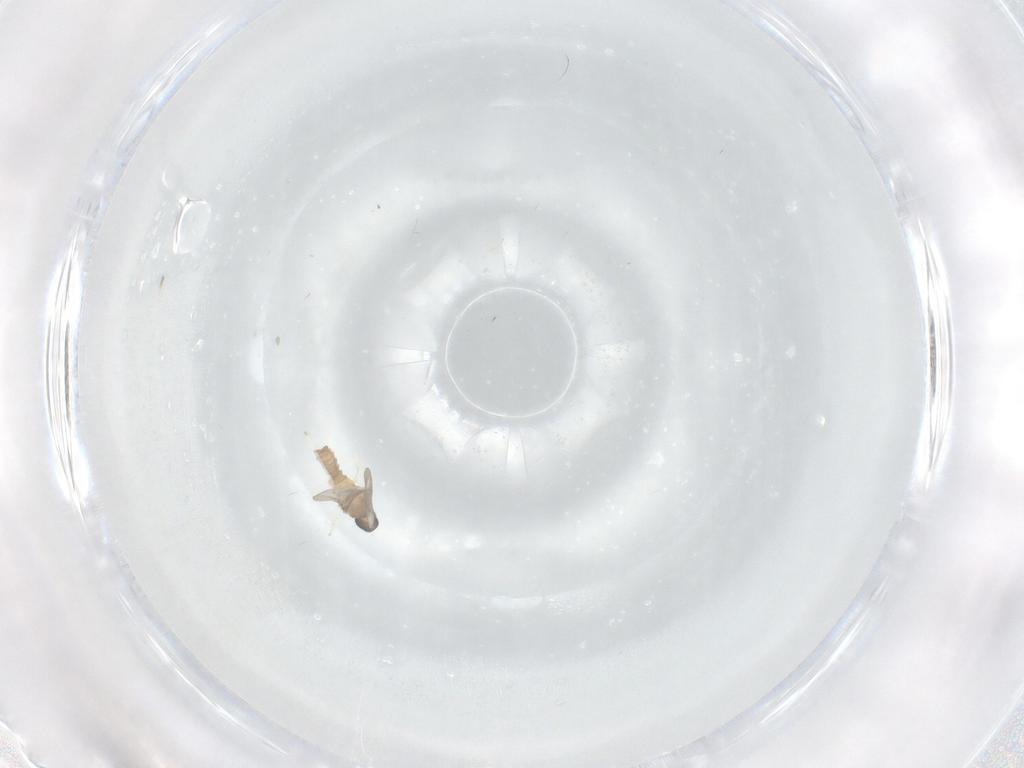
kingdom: Animalia
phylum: Arthropoda
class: Insecta
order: Diptera
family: Cecidomyiidae
